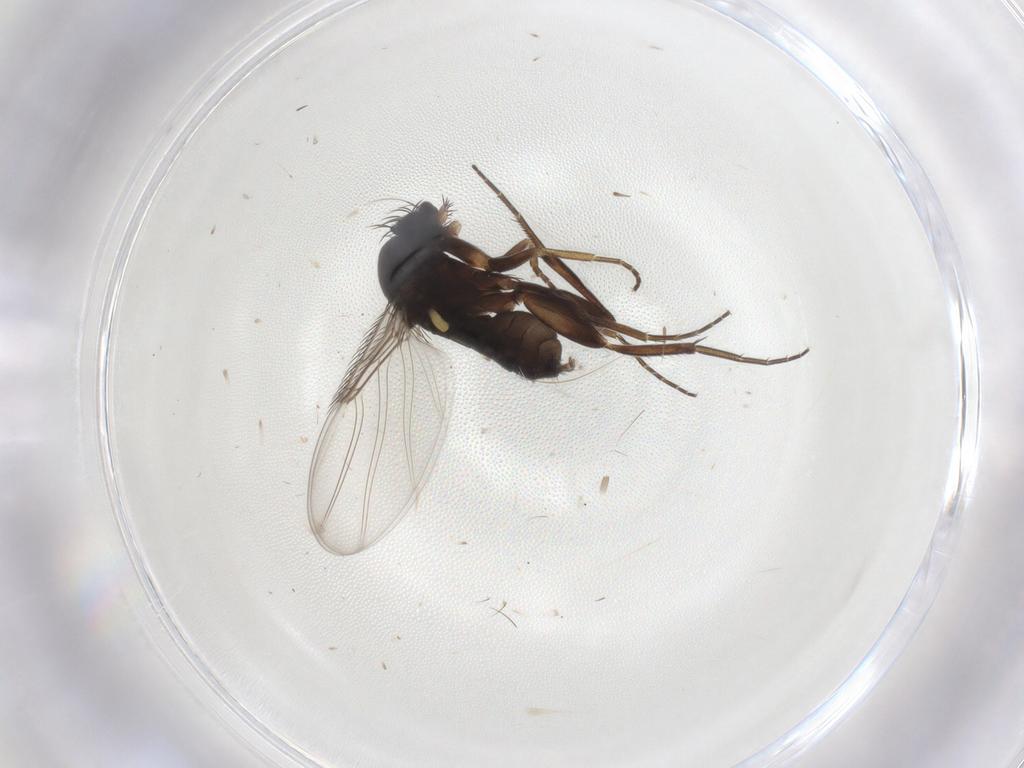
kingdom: Animalia
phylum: Arthropoda
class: Insecta
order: Diptera
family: Phoridae
